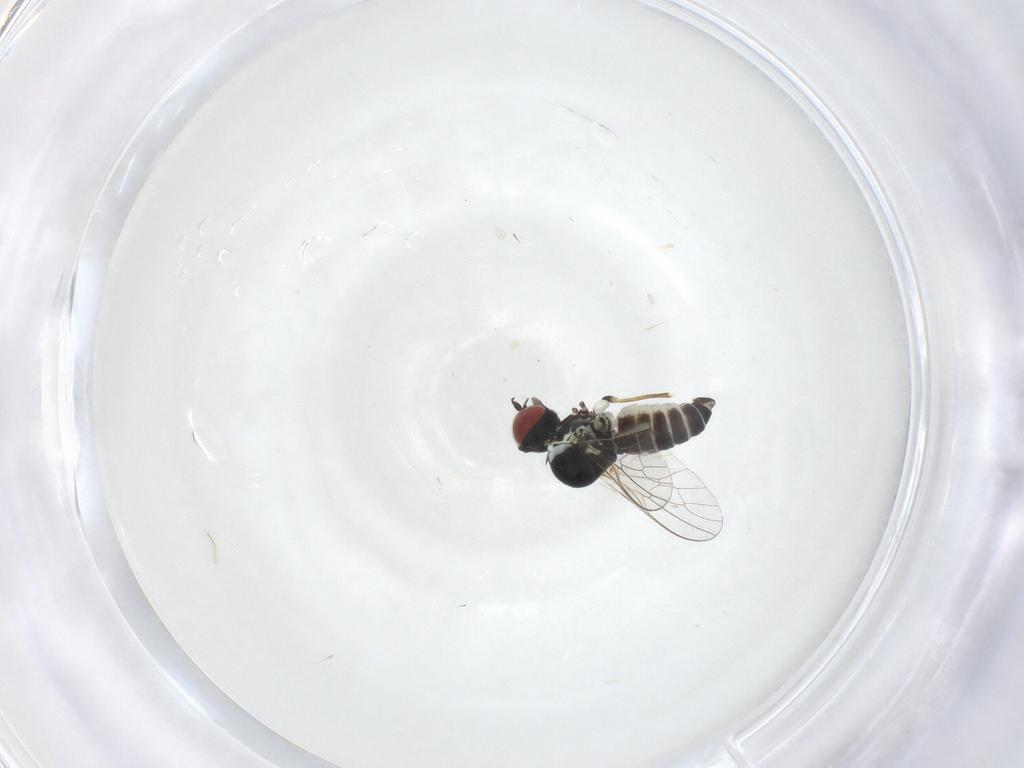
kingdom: Animalia
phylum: Arthropoda
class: Insecta
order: Diptera
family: Mythicomyiidae
